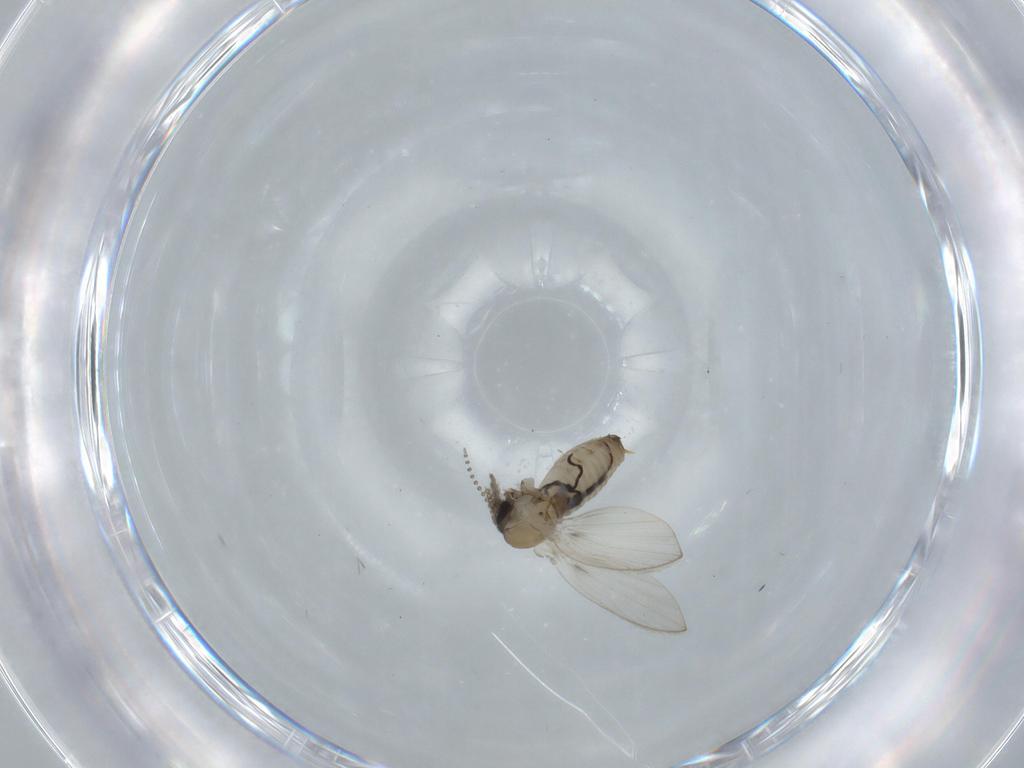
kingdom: Animalia
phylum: Arthropoda
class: Insecta
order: Diptera
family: Psychodidae
